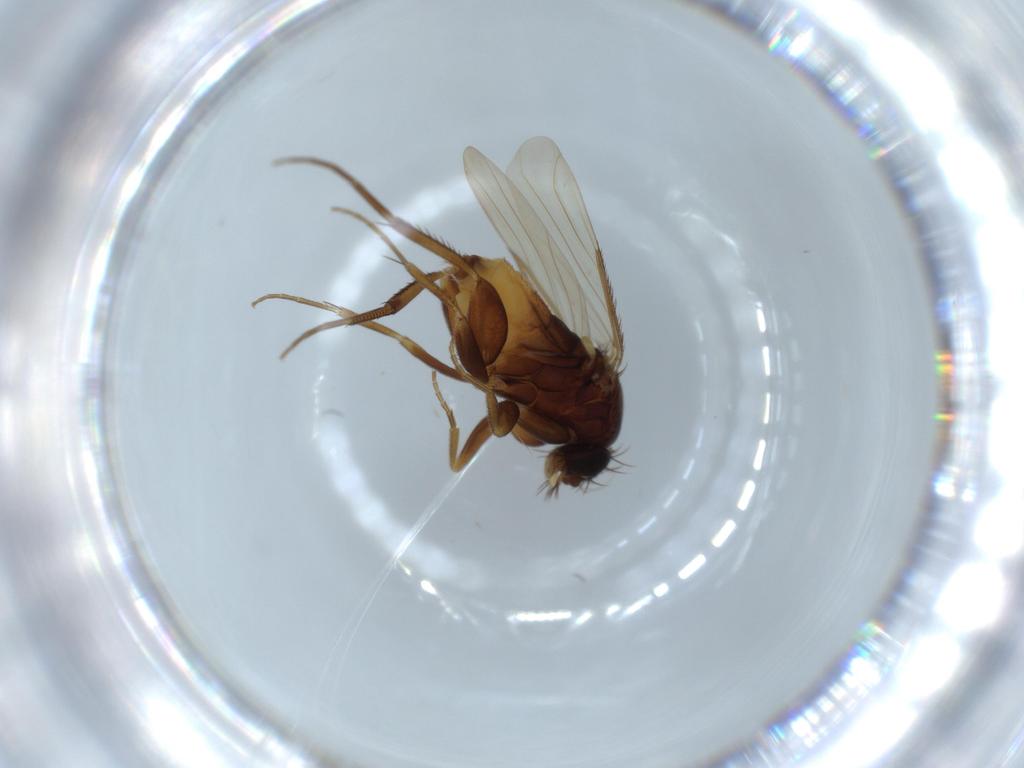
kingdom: Animalia
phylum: Arthropoda
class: Insecta
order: Diptera
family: Phoridae
